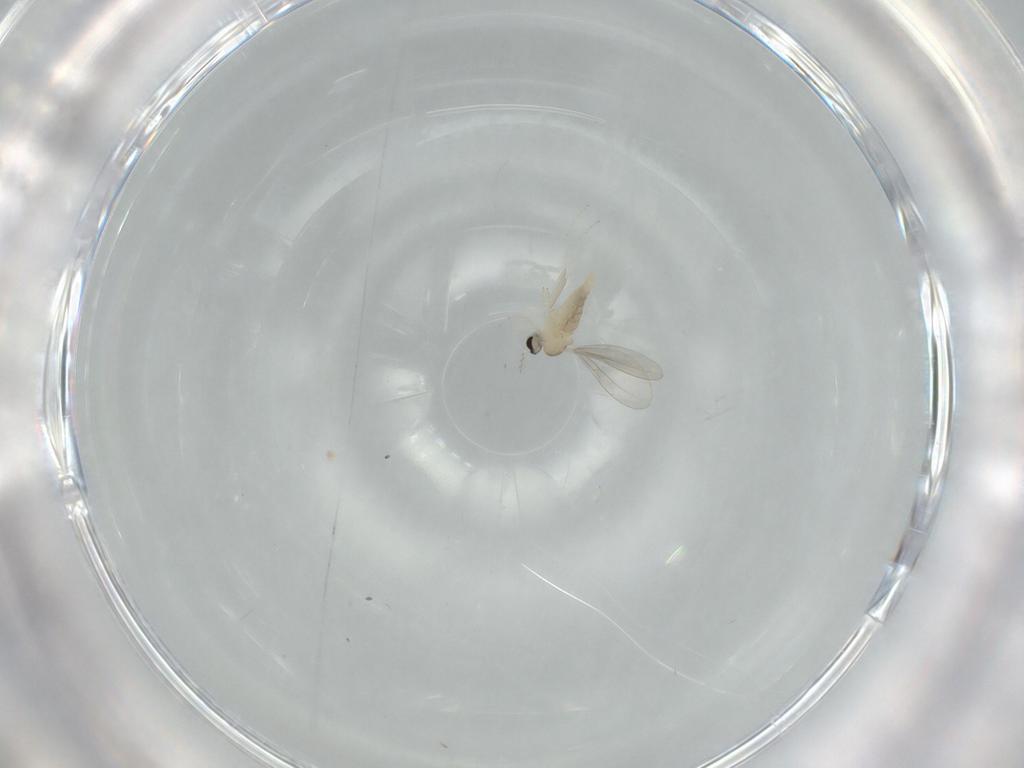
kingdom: Animalia
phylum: Arthropoda
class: Insecta
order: Diptera
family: Cecidomyiidae
